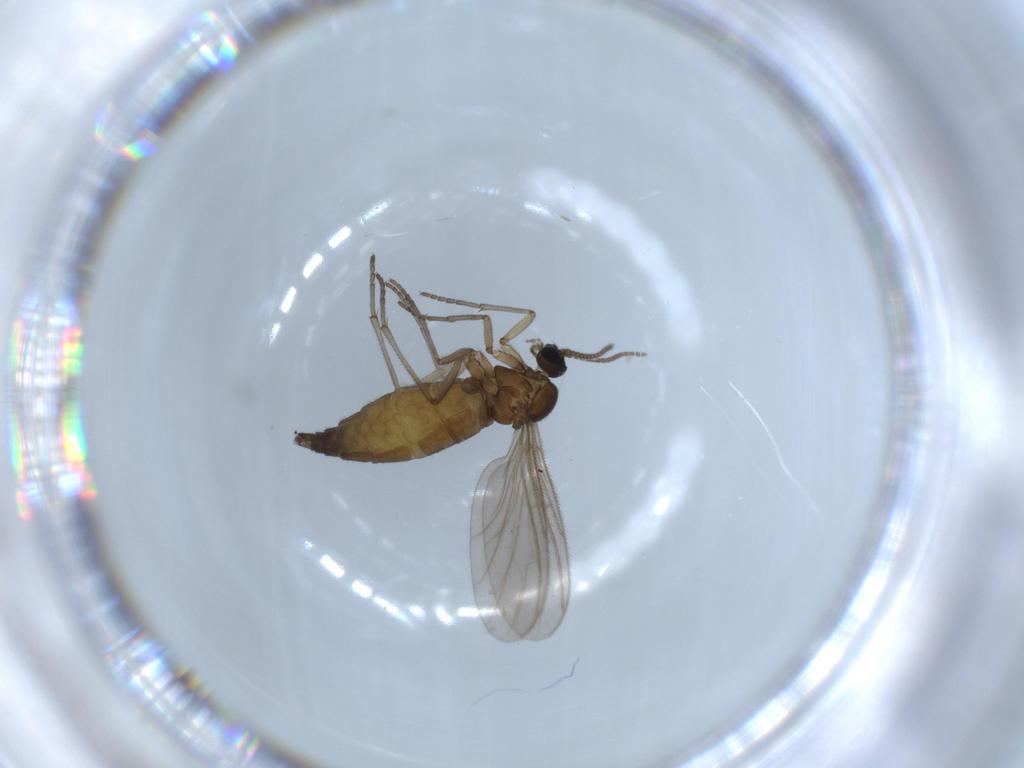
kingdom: Animalia
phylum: Arthropoda
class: Insecta
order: Diptera
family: Sciaridae
